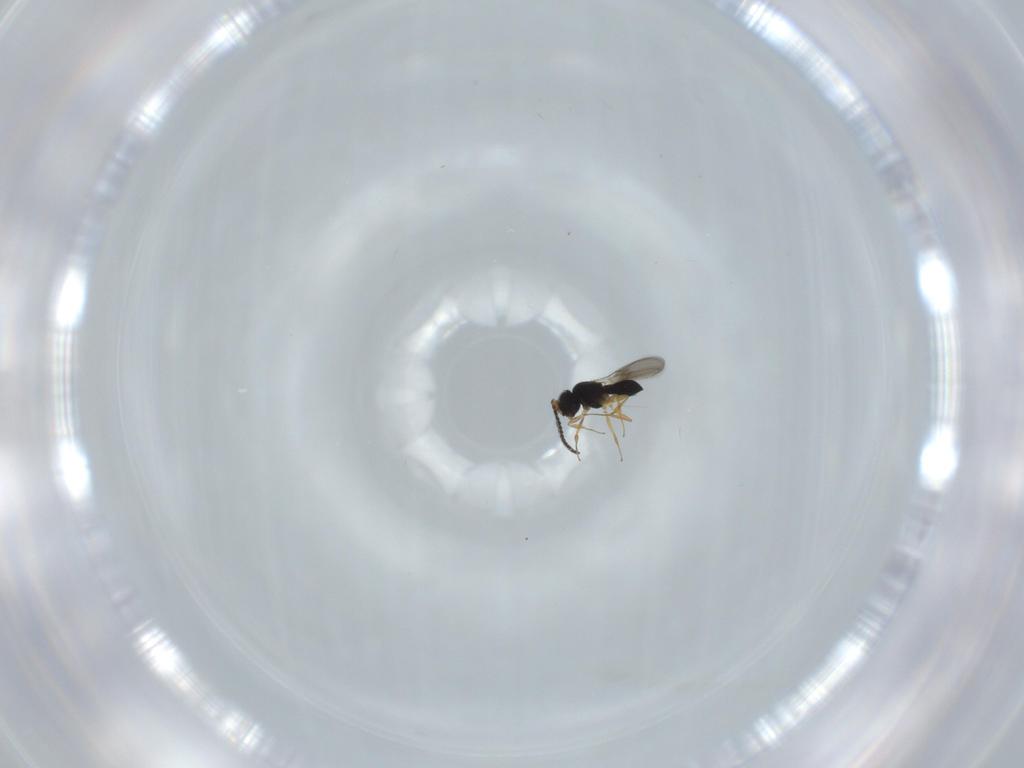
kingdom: Animalia
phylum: Arthropoda
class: Insecta
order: Hymenoptera
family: Scelionidae
